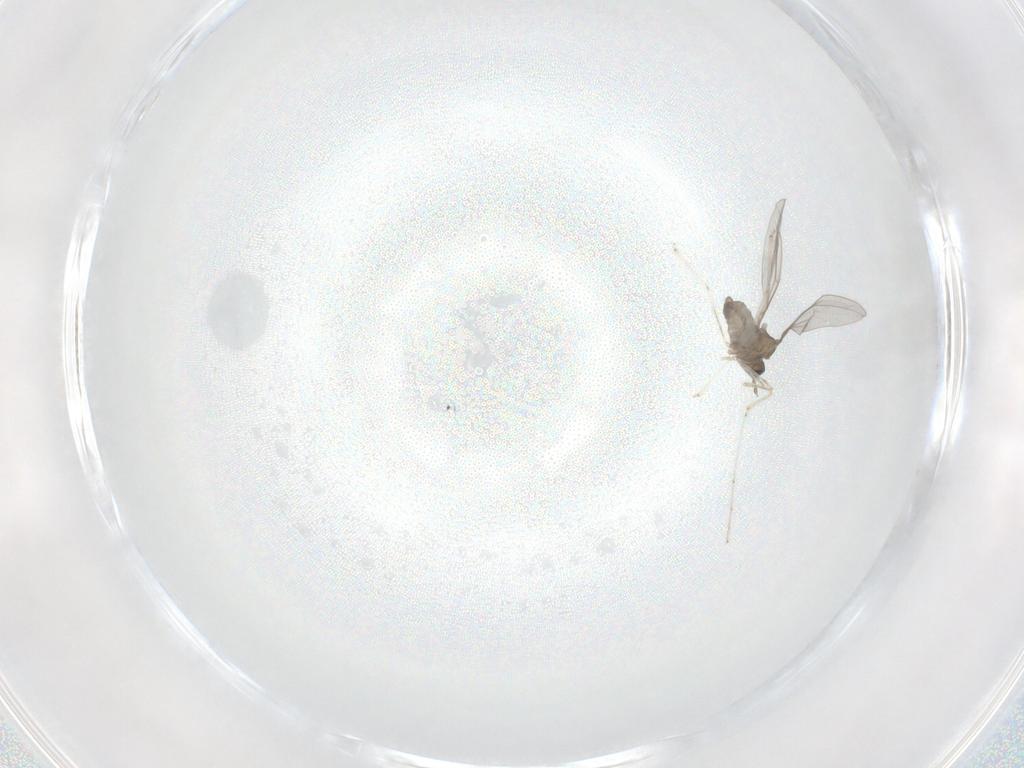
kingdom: Animalia
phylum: Arthropoda
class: Insecta
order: Diptera
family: Cecidomyiidae
